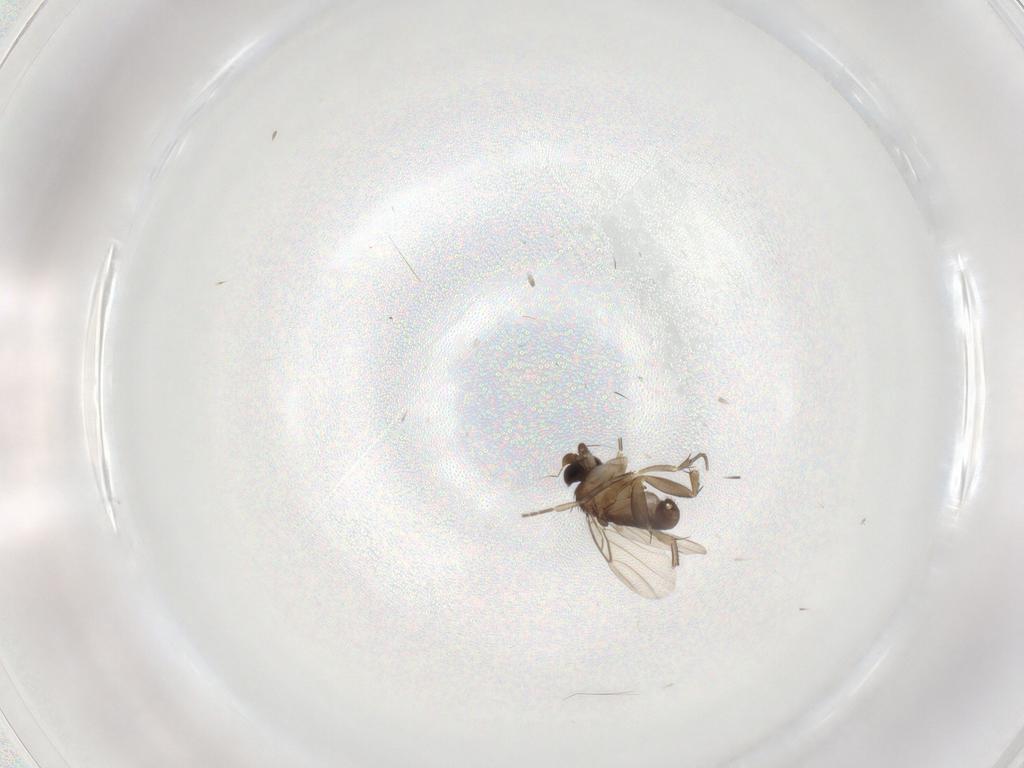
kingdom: Animalia
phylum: Arthropoda
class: Insecta
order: Diptera
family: Phoridae
